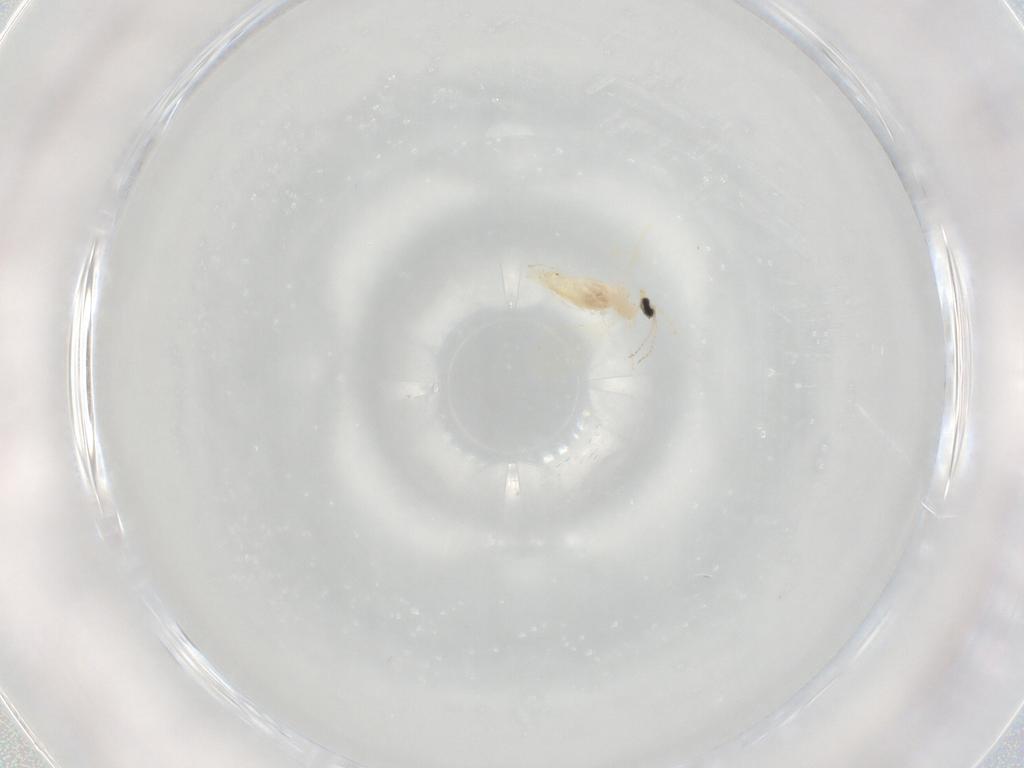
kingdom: Animalia
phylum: Arthropoda
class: Insecta
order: Diptera
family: Cecidomyiidae
